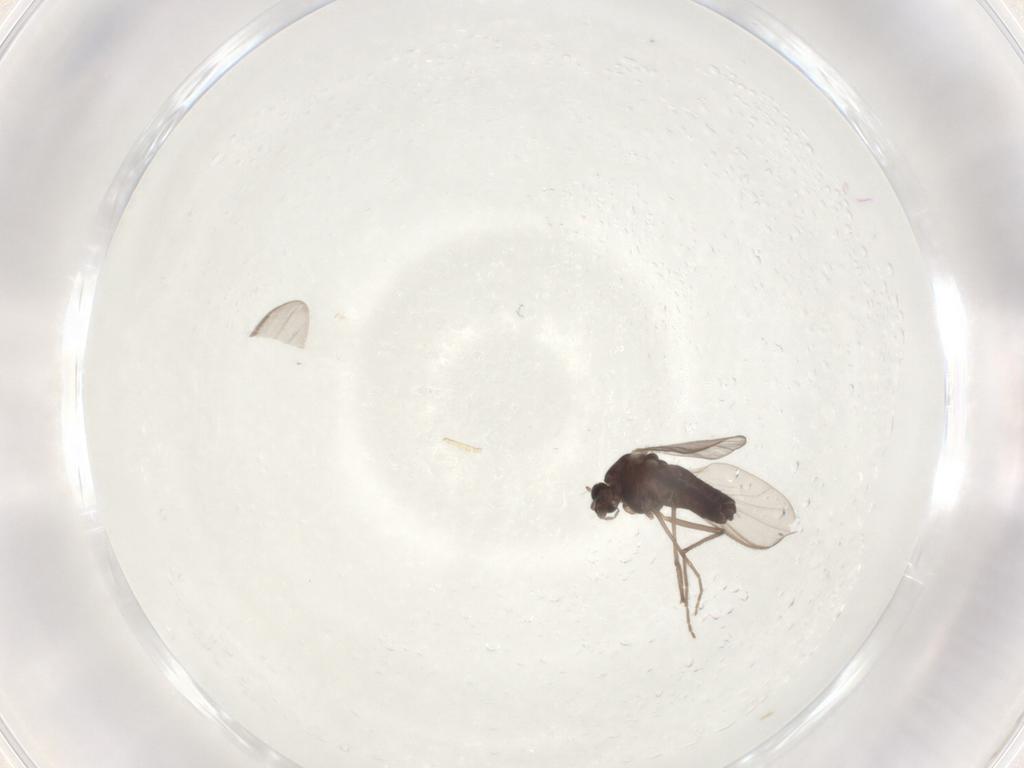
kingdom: Animalia
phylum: Arthropoda
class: Insecta
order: Diptera
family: Chironomidae
